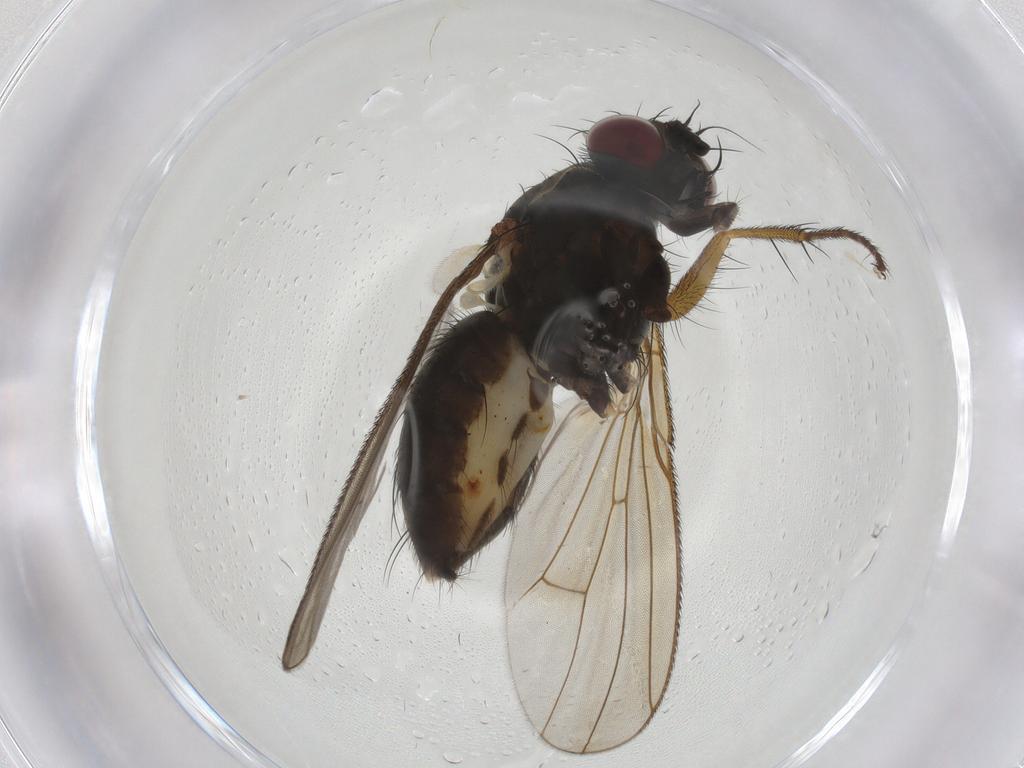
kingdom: Animalia
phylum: Arthropoda
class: Insecta
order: Diptera
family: Muscidae
